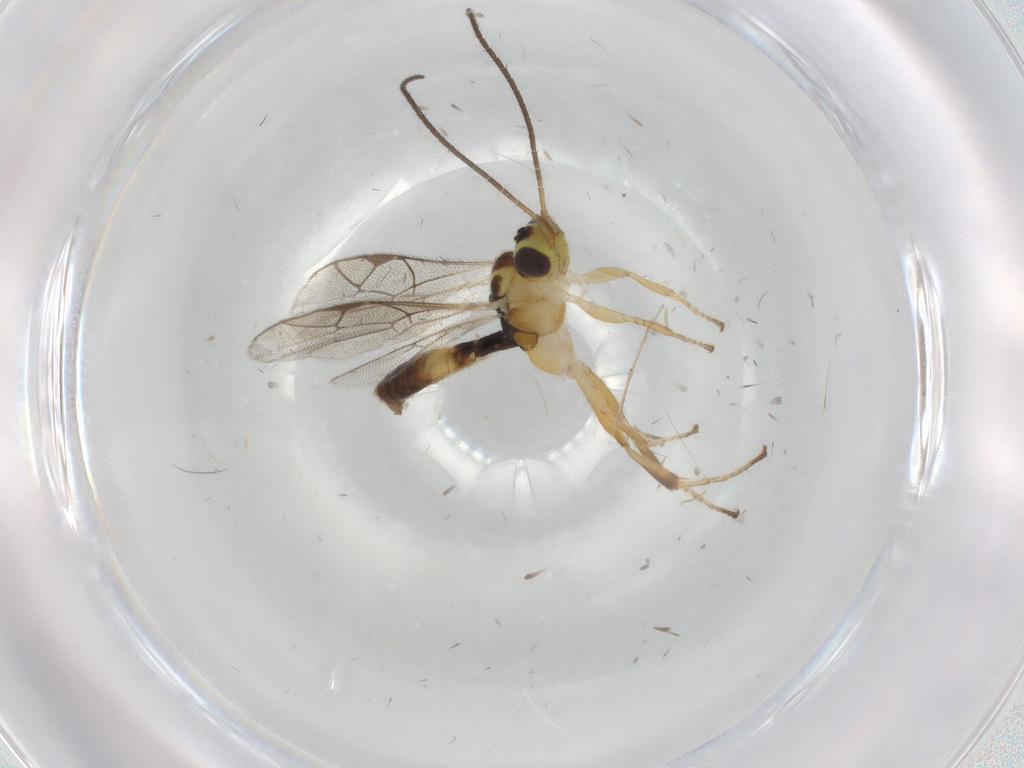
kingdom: Animalia
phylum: Arthropoda
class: Insecta
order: Hymenoptera
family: Ichneumonidae
